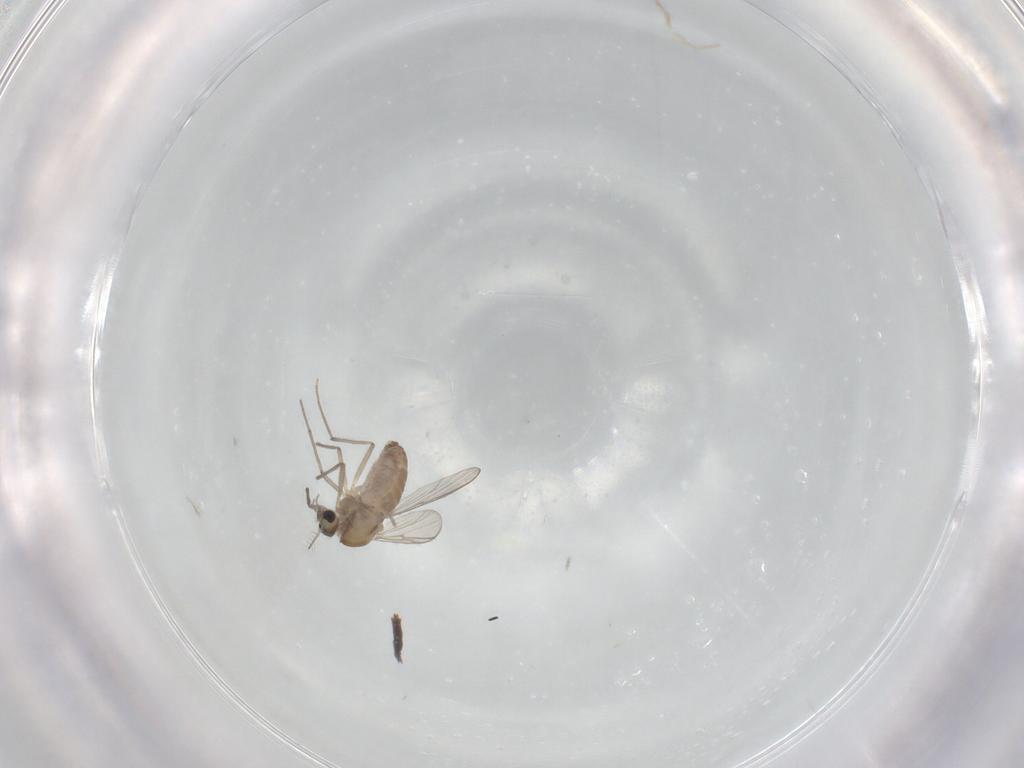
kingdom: Animalia
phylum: Arthropoda
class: Insecta
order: Diptera
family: Chironomidae
